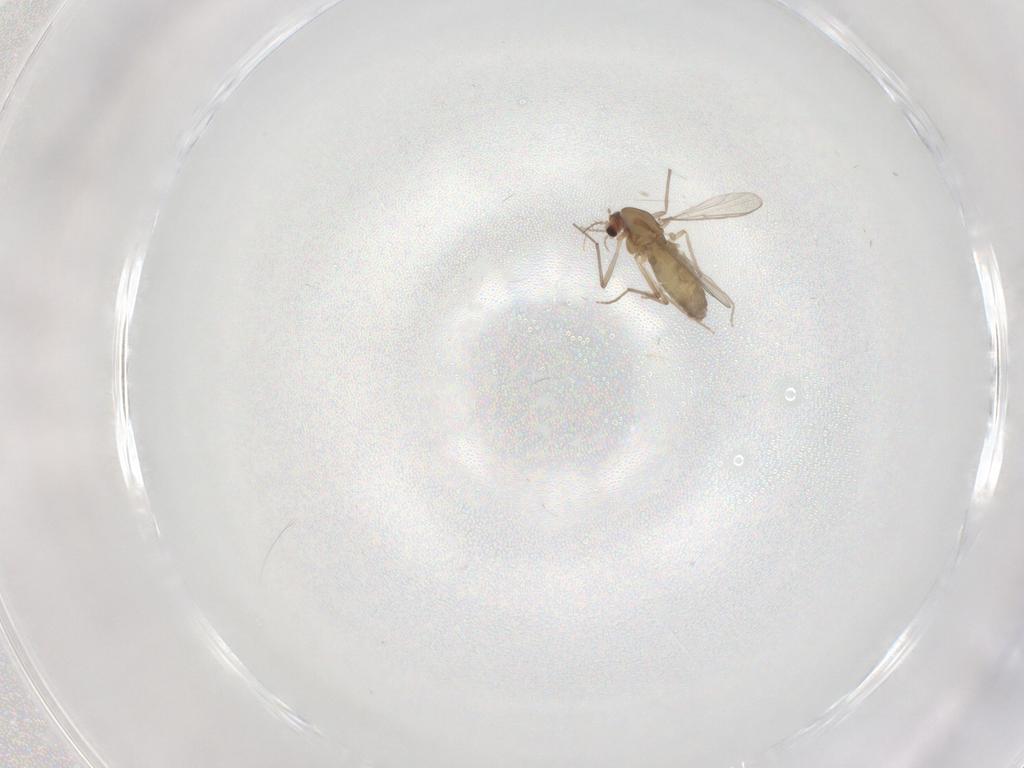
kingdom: Animalia
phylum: Arthropoda
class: Insecta
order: Diptera
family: Chironomidae
